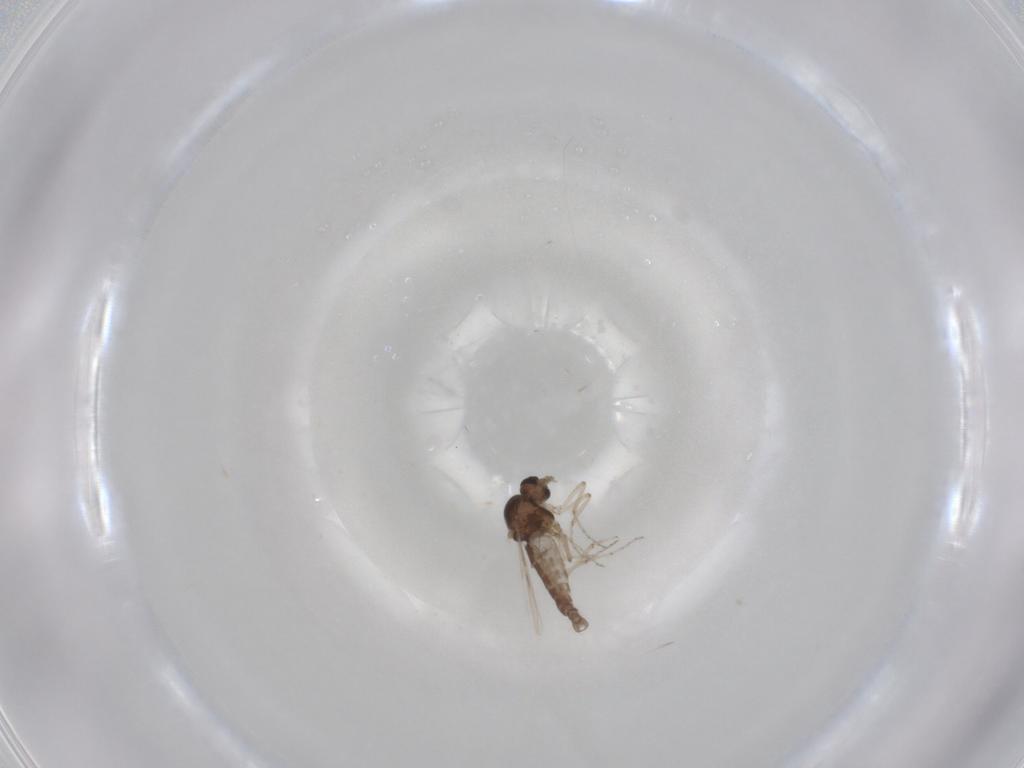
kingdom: Animalia
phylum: Arthropoda
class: Insecta
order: Diptera
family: Ceratopogonidae
